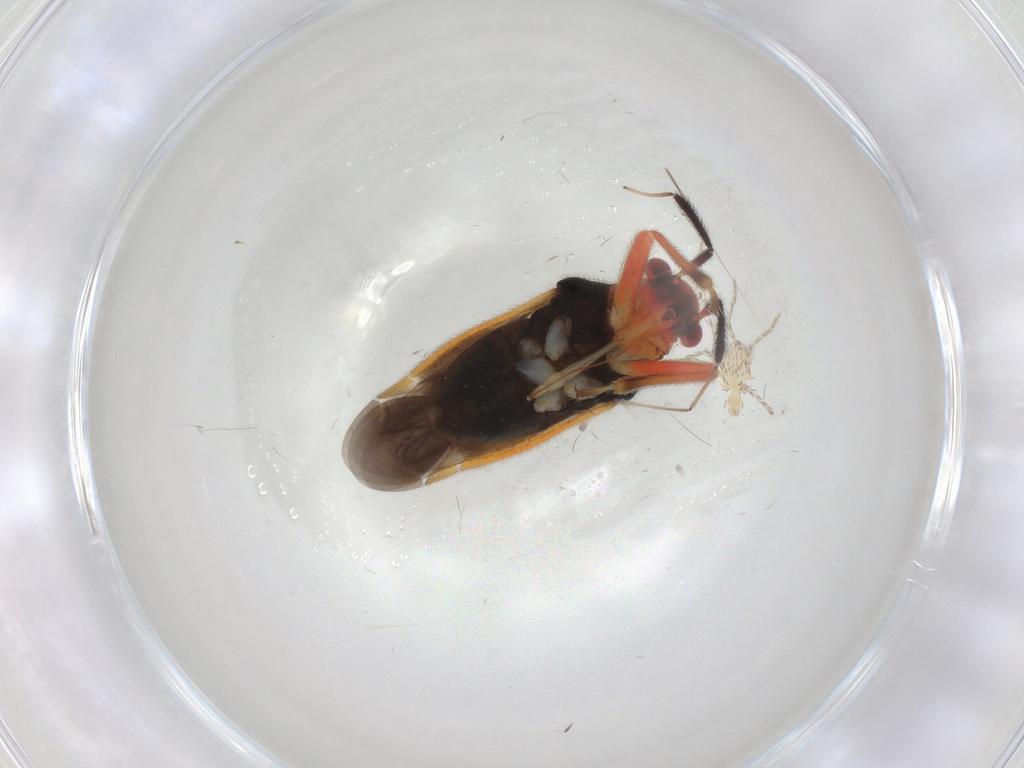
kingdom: Animalia
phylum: Arthropoda
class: Insecta
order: Hemiptera
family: Miridae
